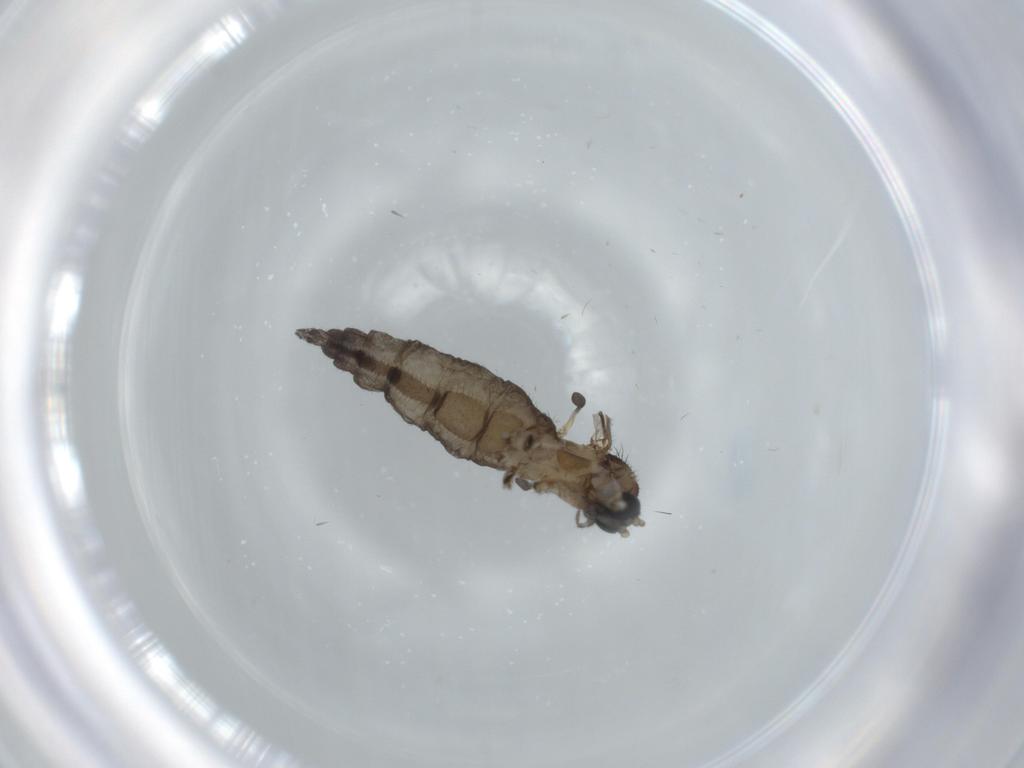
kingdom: Animalia
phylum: Arthropoda
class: Insecta
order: Diptera
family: Sciaridae
